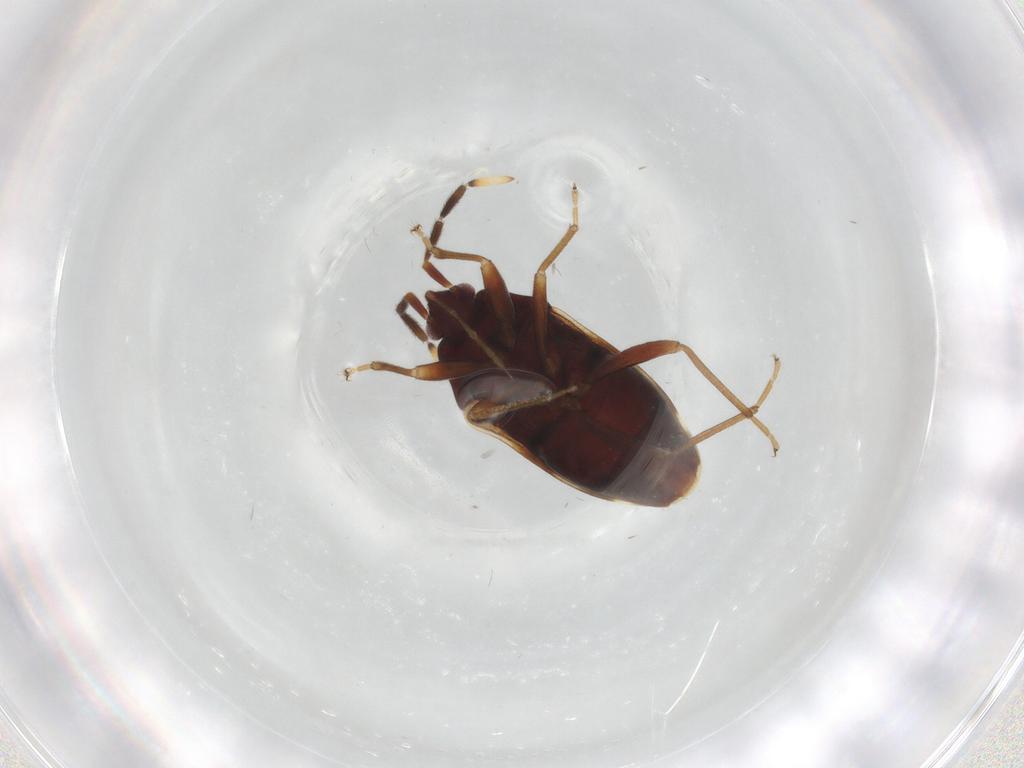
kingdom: Animalia
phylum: Arthropoda
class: Insecta
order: Hemiptera
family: Rhyparochromidae
